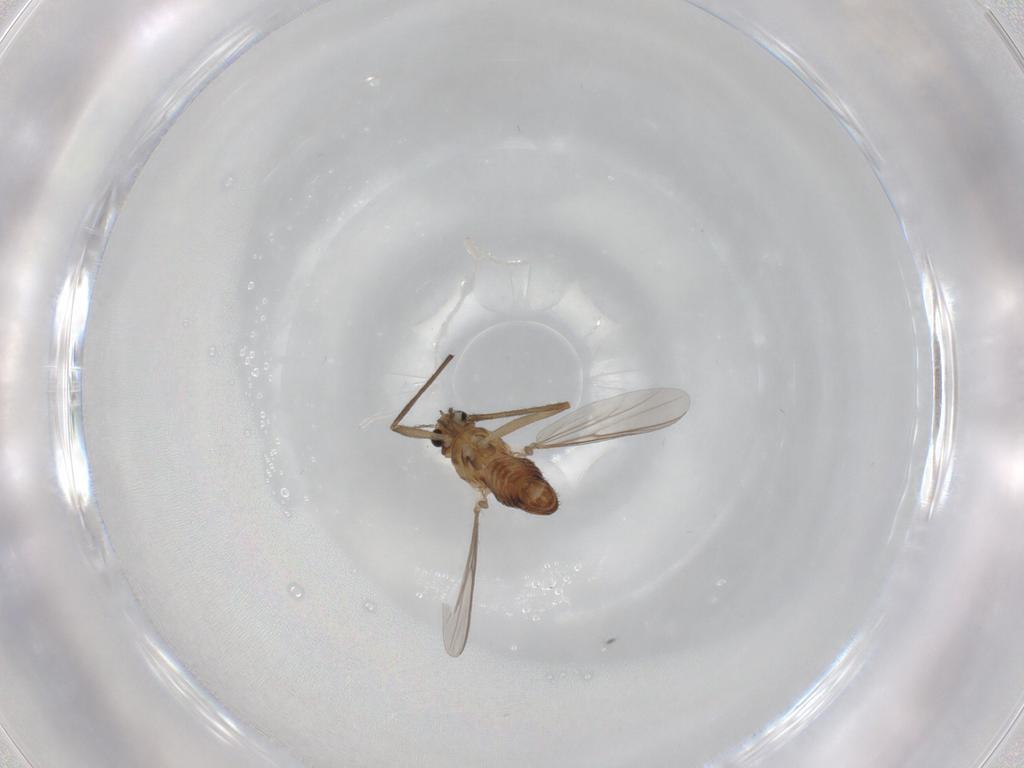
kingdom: Animalia
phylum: Arthropoda
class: Insecta
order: Diptera
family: Chironomidae
